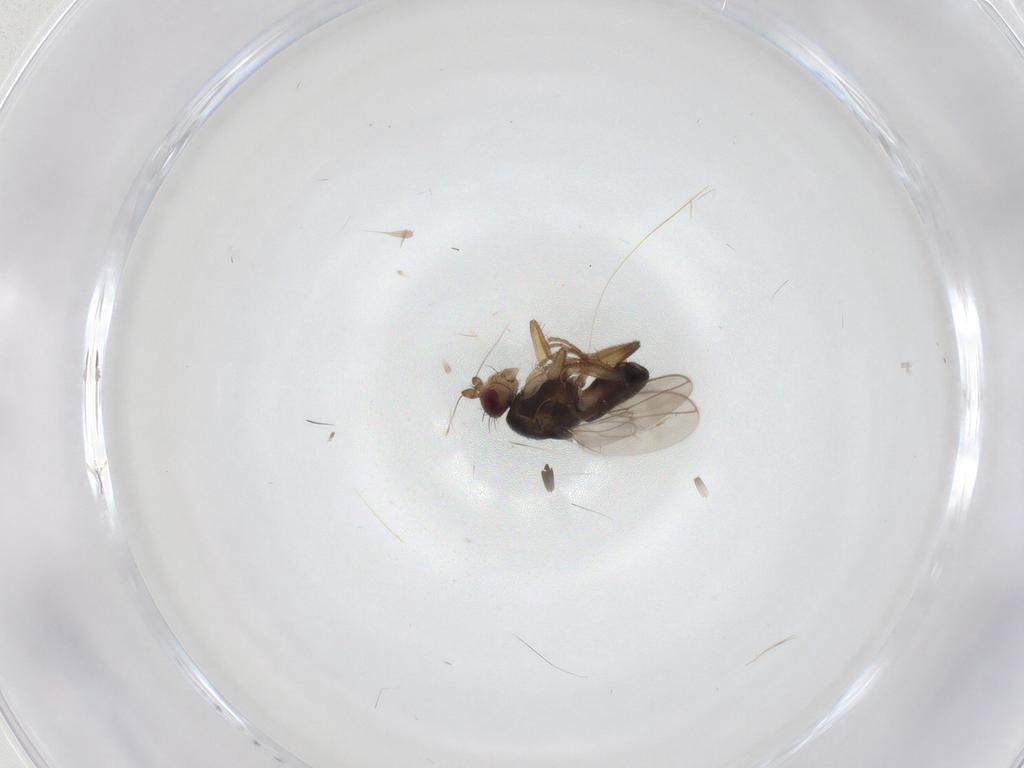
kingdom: Animalia
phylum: Arthropoda
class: Insecta
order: Diptera
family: Sphaeroceridae
